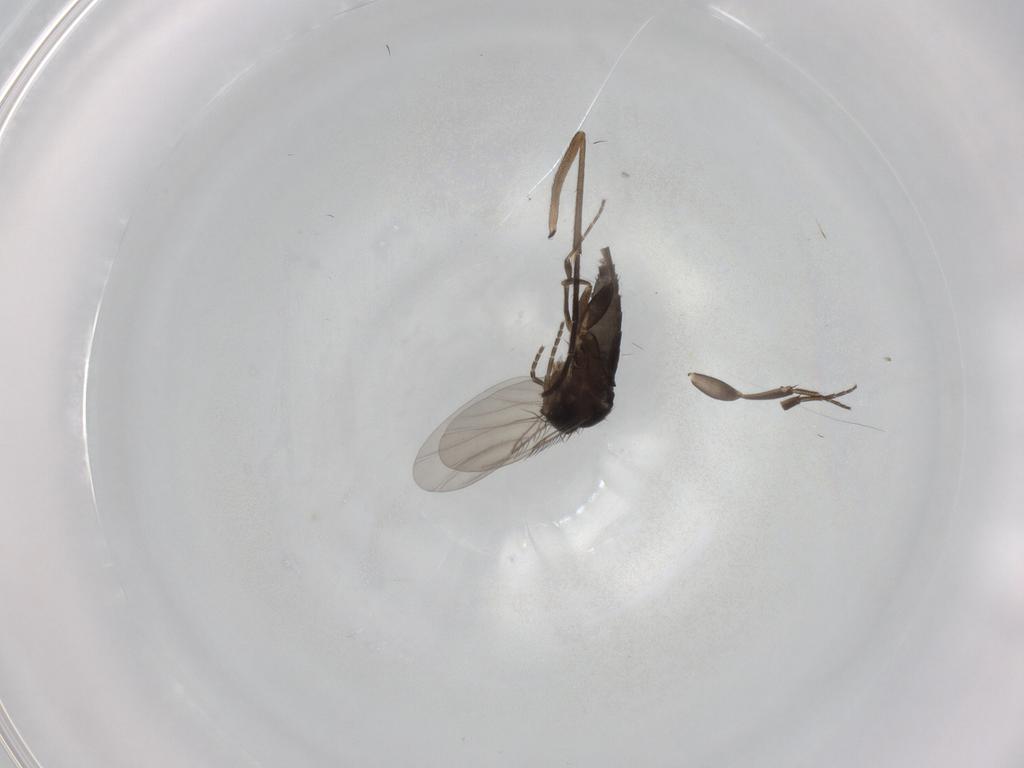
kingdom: Animalia
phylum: Arthropoda
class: Insecta
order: Diptera
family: Phoridae
